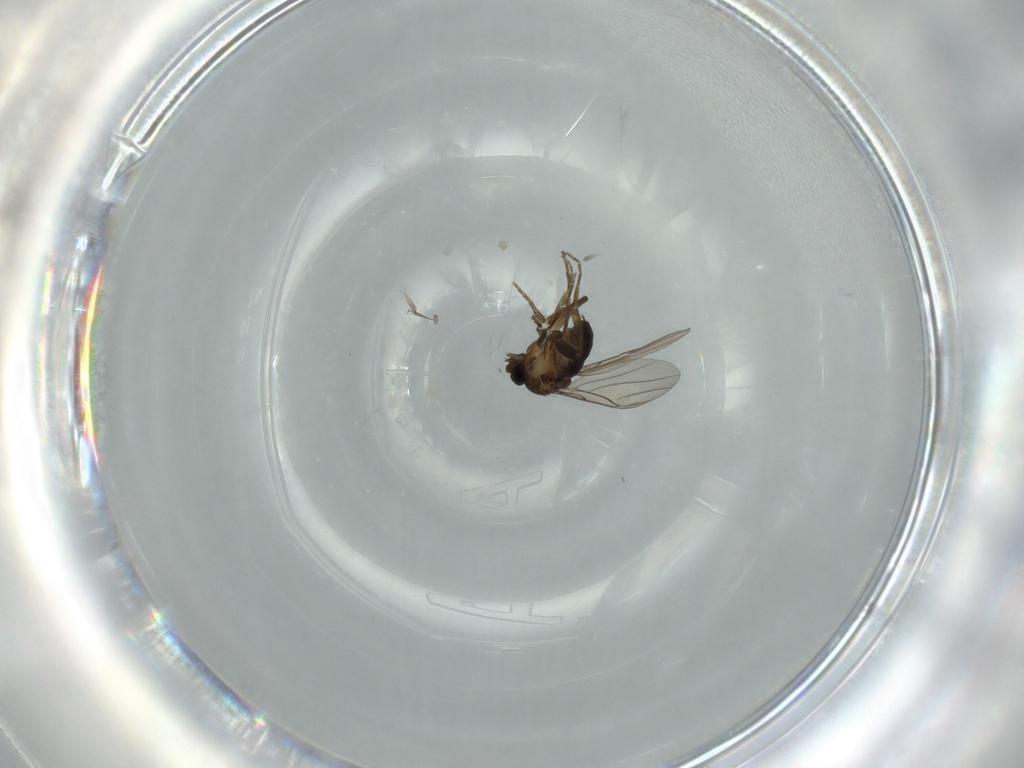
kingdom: Animalia
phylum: Arthropoda
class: Insecta
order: Diptera
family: Phoridae
